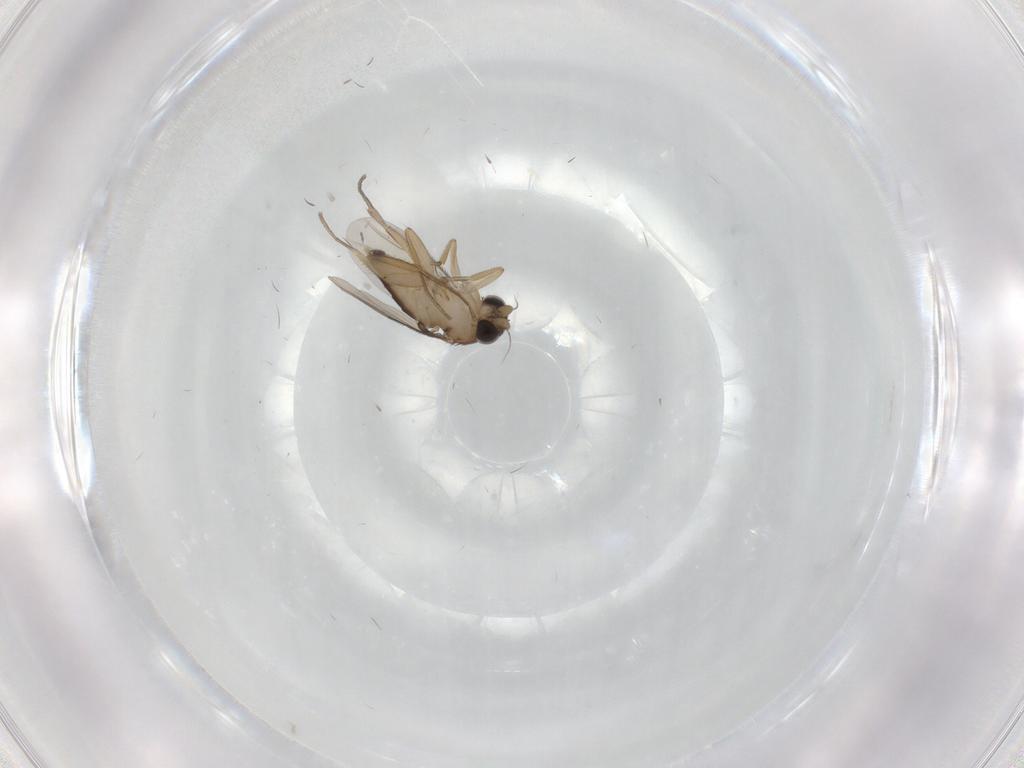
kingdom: Animalia
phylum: Arthropoda
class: Insecta
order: Diptera
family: Phoridae
